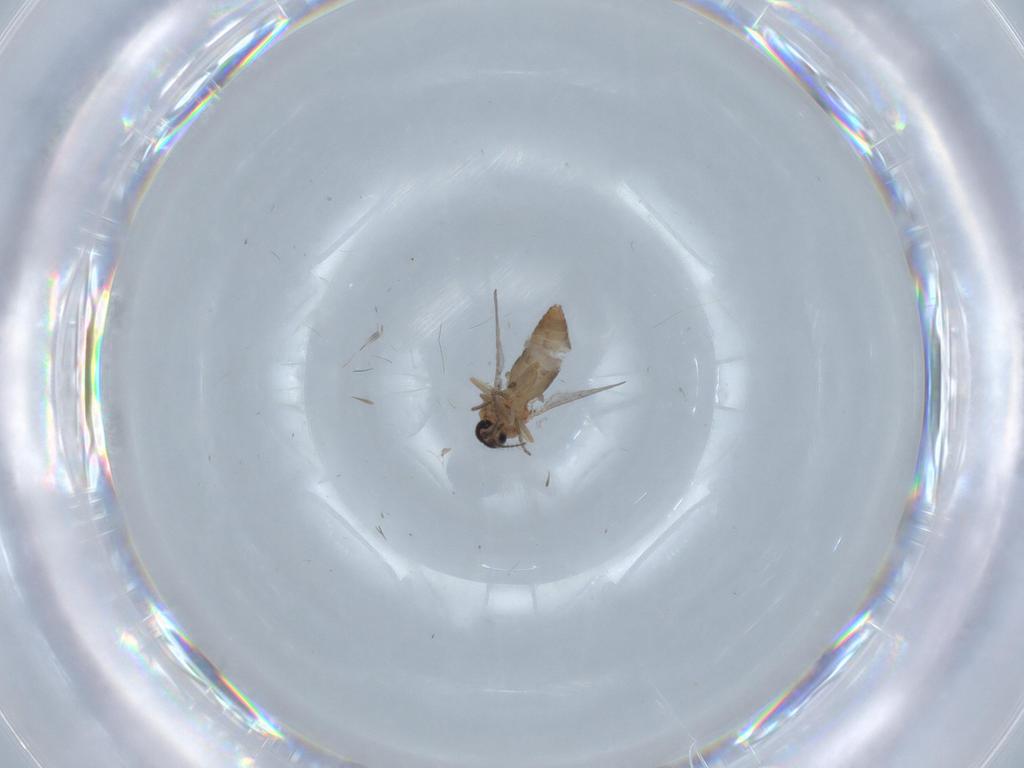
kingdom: Animalia
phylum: Arthropoda
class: Insecta
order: Diptera
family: Ceratopogonidae
